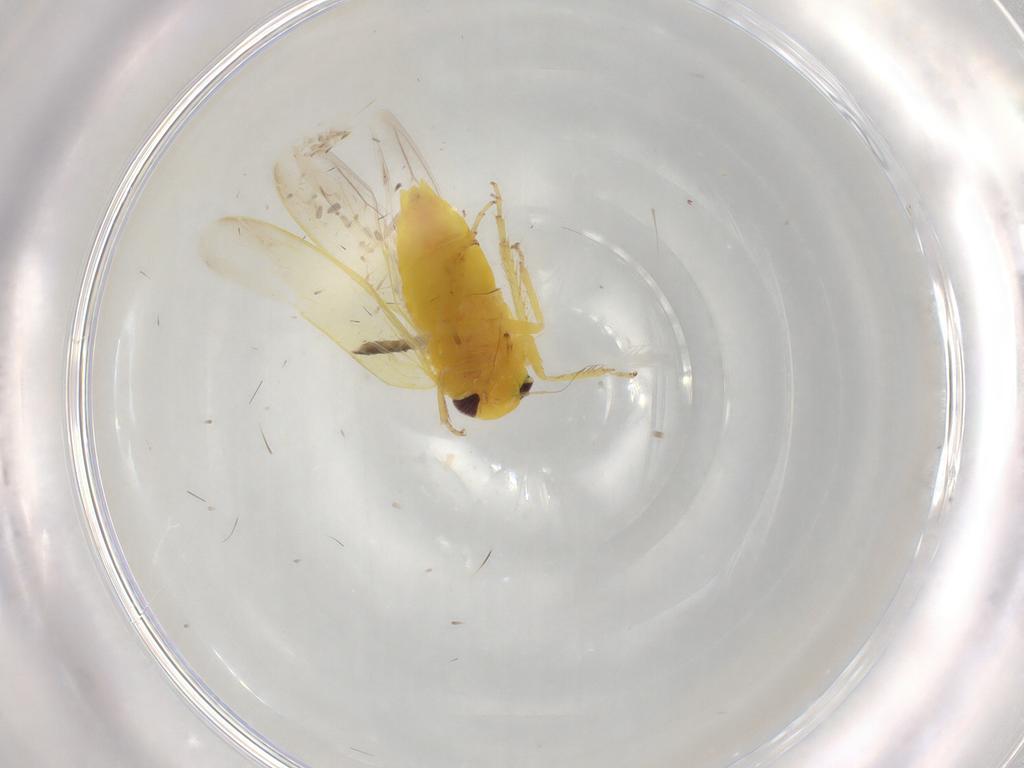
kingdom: Animalia
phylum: Arthropoda
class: Insecta
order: Hemiptera
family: Cicadellidae
